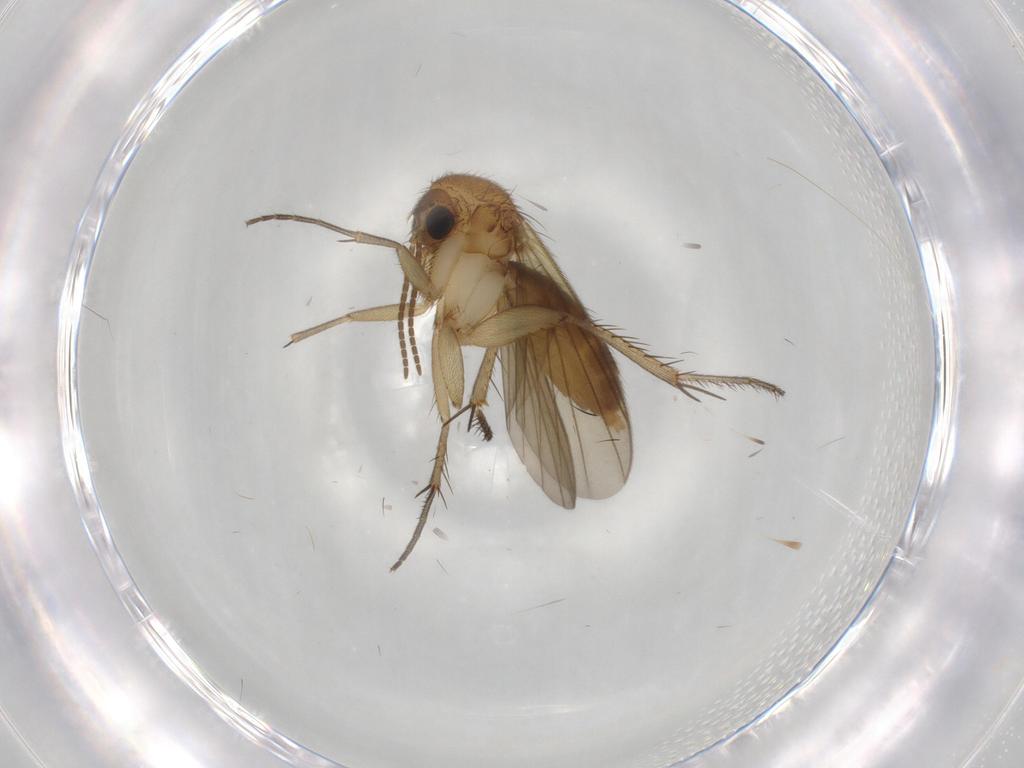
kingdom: Animalia
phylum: Arthropoda
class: Insecta
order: Diptera
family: Mycetophilidae
